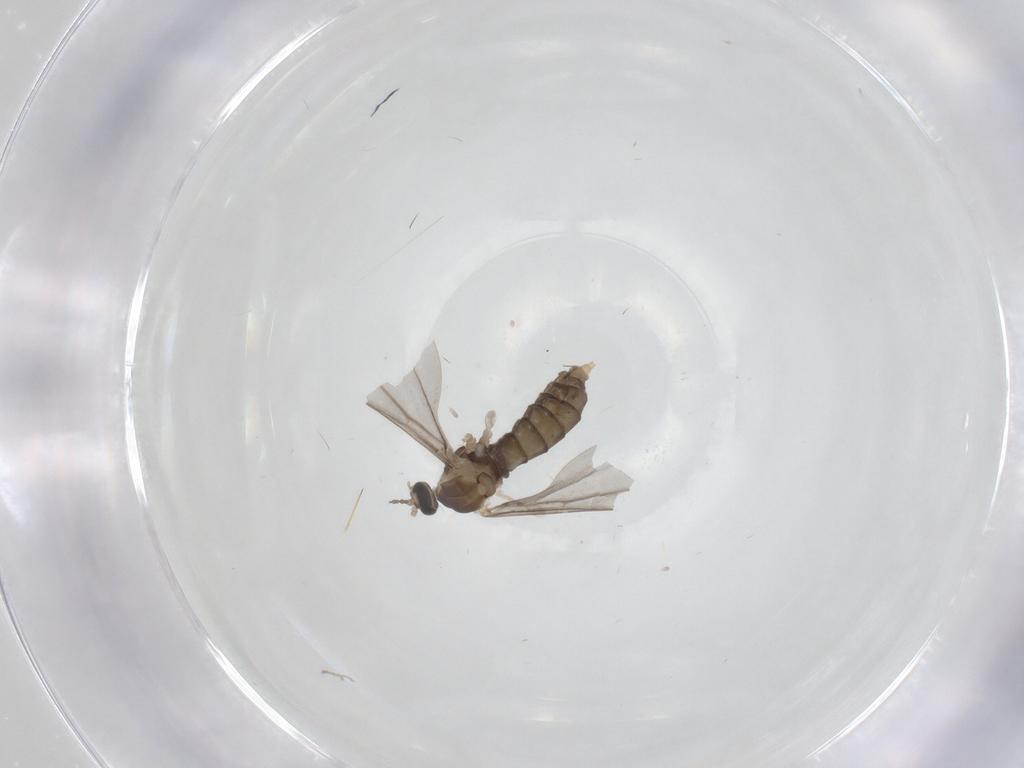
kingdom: Animalia
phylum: Arthropoda
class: Insecta
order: Diptera
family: Cecidomyiidae
